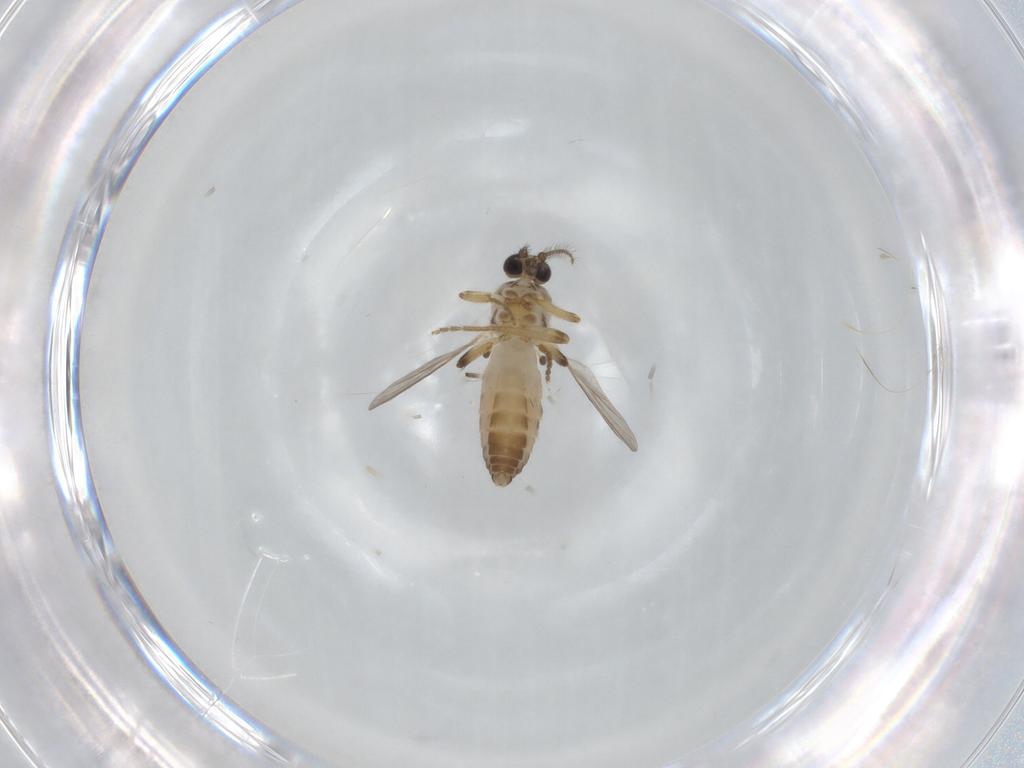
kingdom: Animalia
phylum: Arthropoda
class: Insecta
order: Diptera
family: Ceratopogonidae
